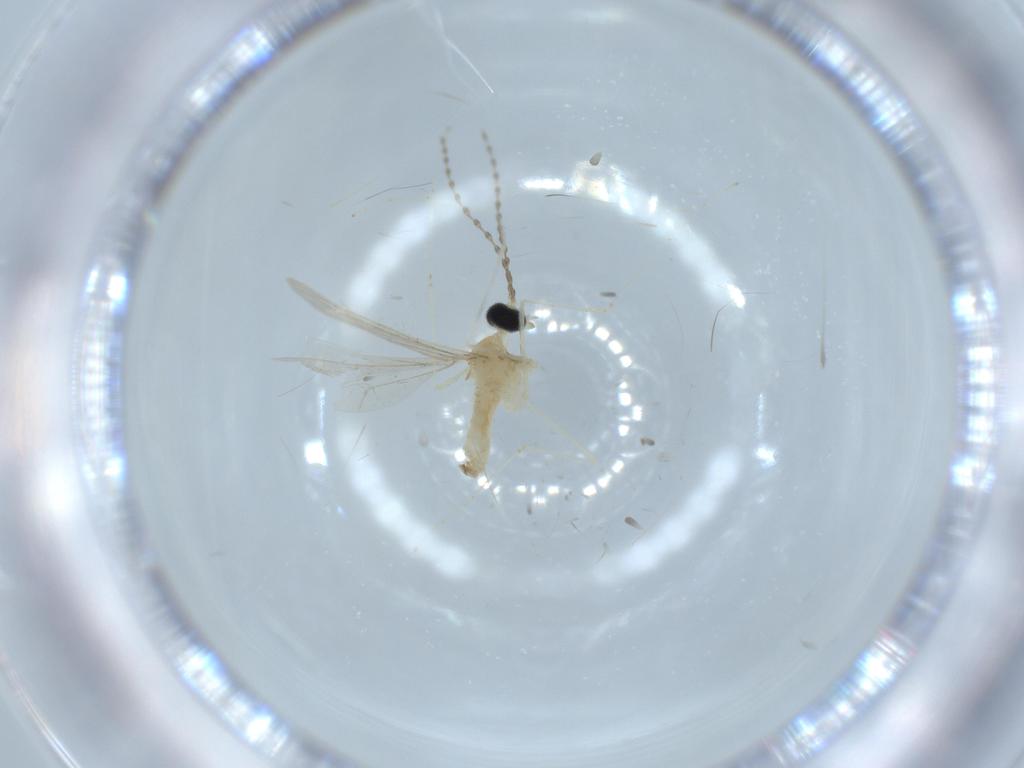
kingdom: Animalia
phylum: Arthropoda
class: Insecta
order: Diptera
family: Cecidomyiidae
